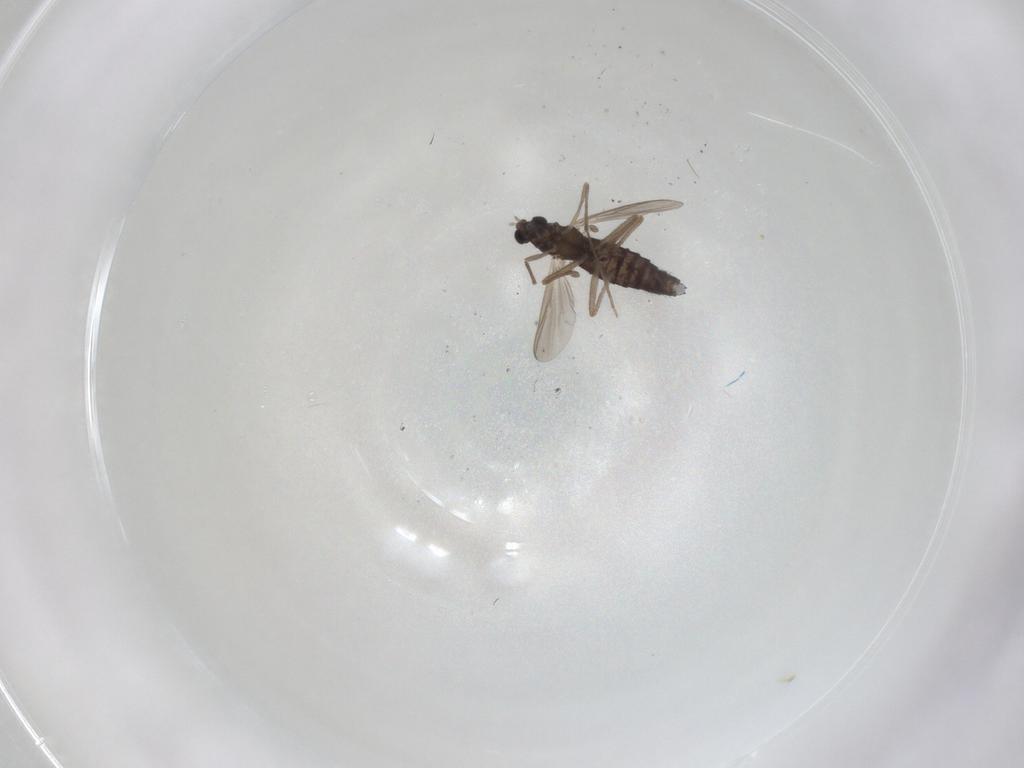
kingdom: Animalia
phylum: Arthropoda
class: Insecta
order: Diptera
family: Chironomidae
